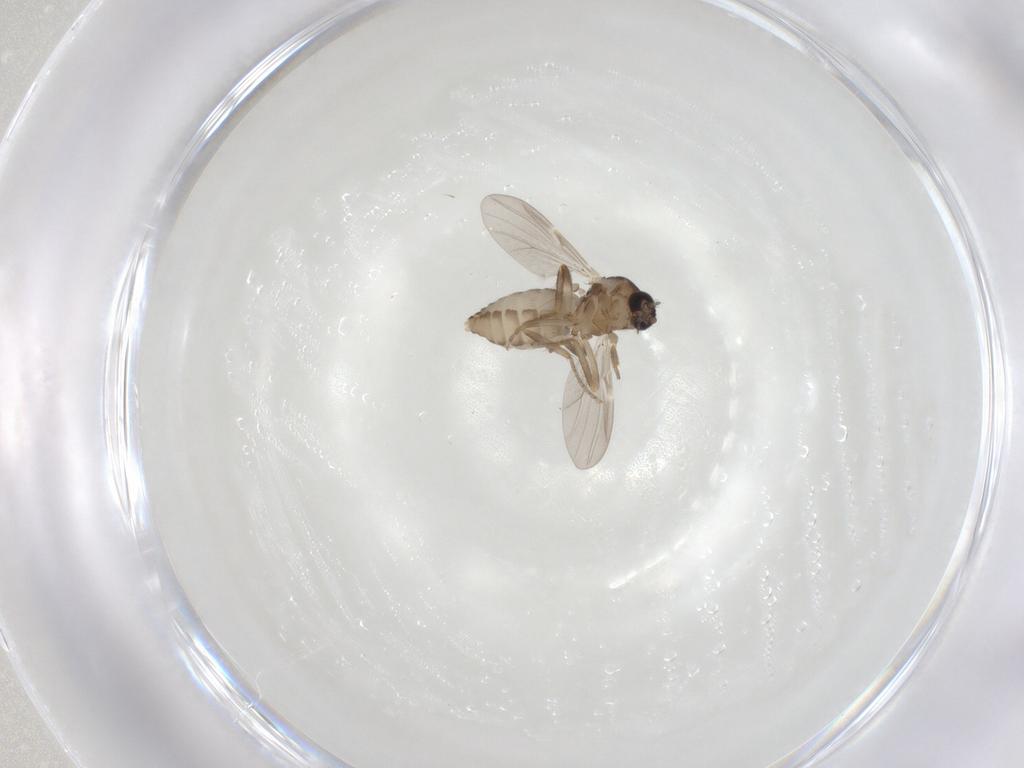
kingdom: Animalia
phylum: Arthropoda
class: Insecta
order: Diptera
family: Ceratopogonidae
